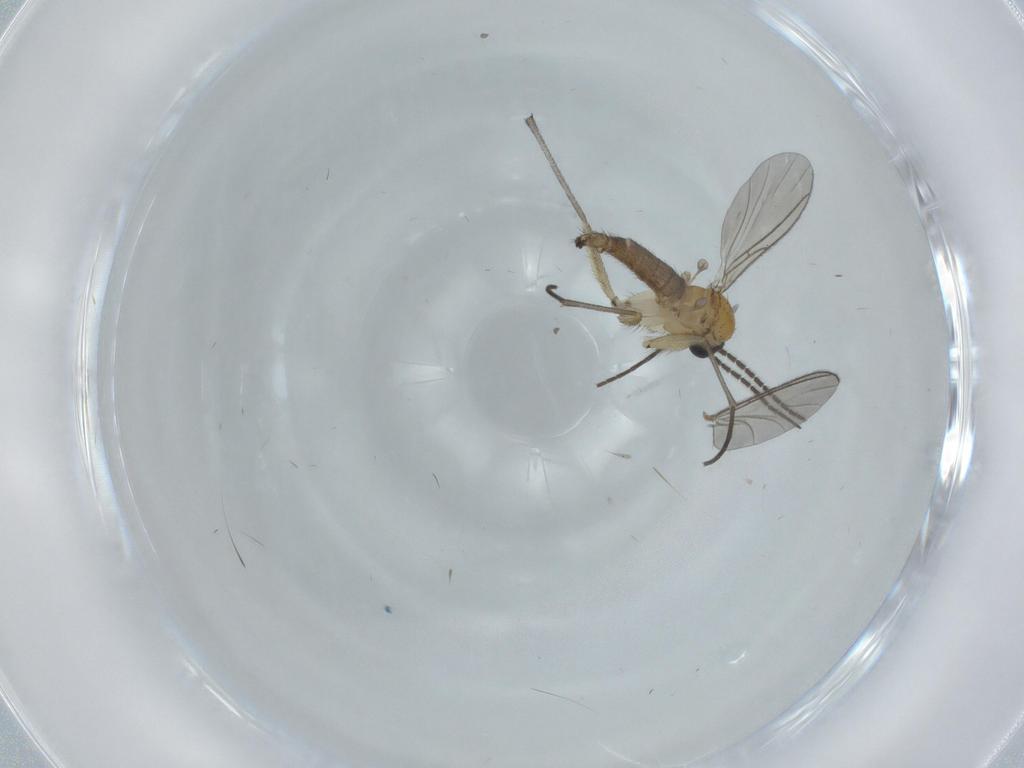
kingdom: Animalia
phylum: Arthropoda
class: Insecta
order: Diptera
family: Sciaridae
